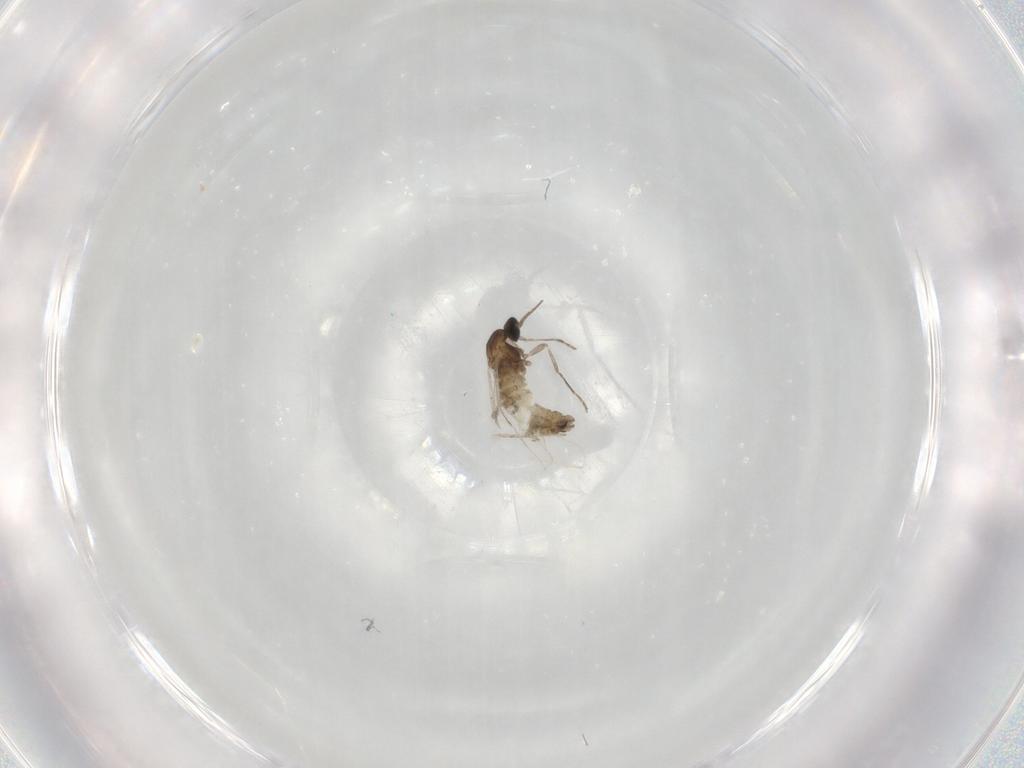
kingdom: Animalia
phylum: Arthropoda
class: Insecta
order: Diptera
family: Cecidomyiidae
